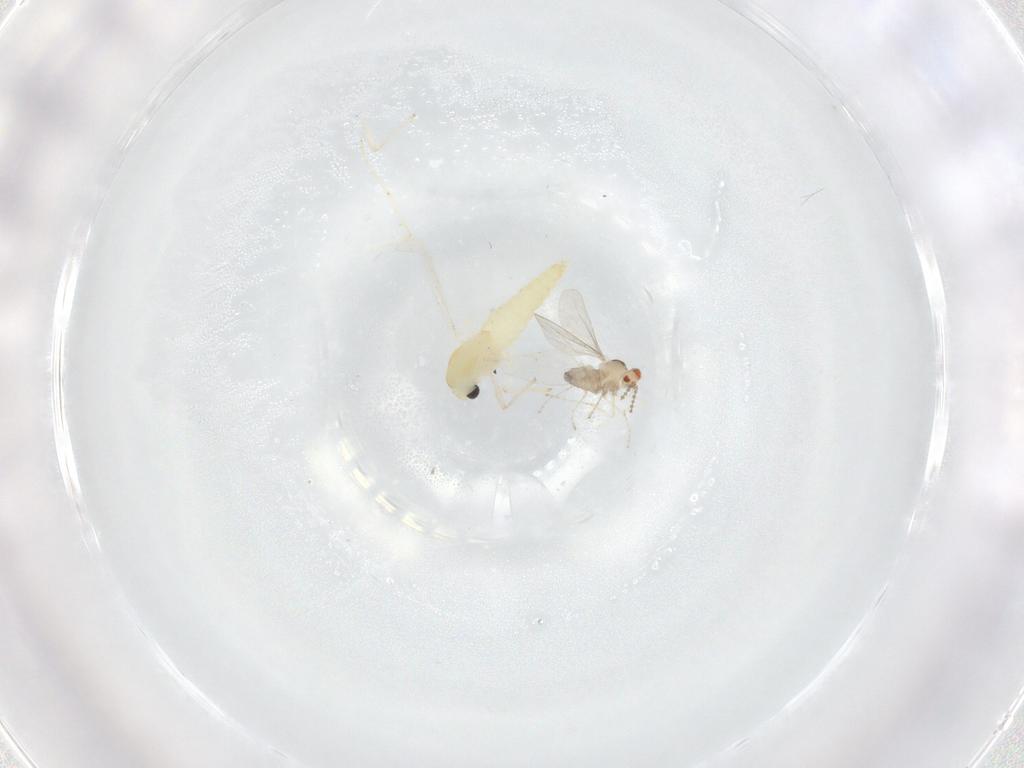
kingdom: Animalia
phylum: Arthropoda
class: Insecta
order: Diptera
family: Chironomidae
